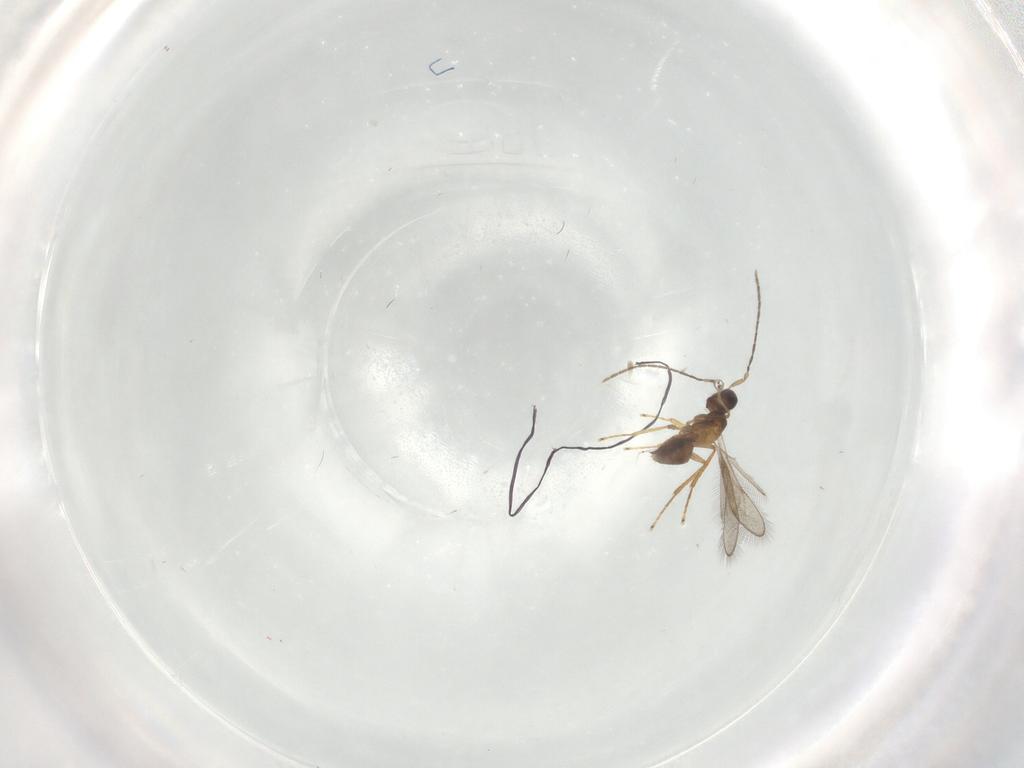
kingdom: Animalia
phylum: Arthropoda
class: Insecta
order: Hymenoptera
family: Mymaridae
